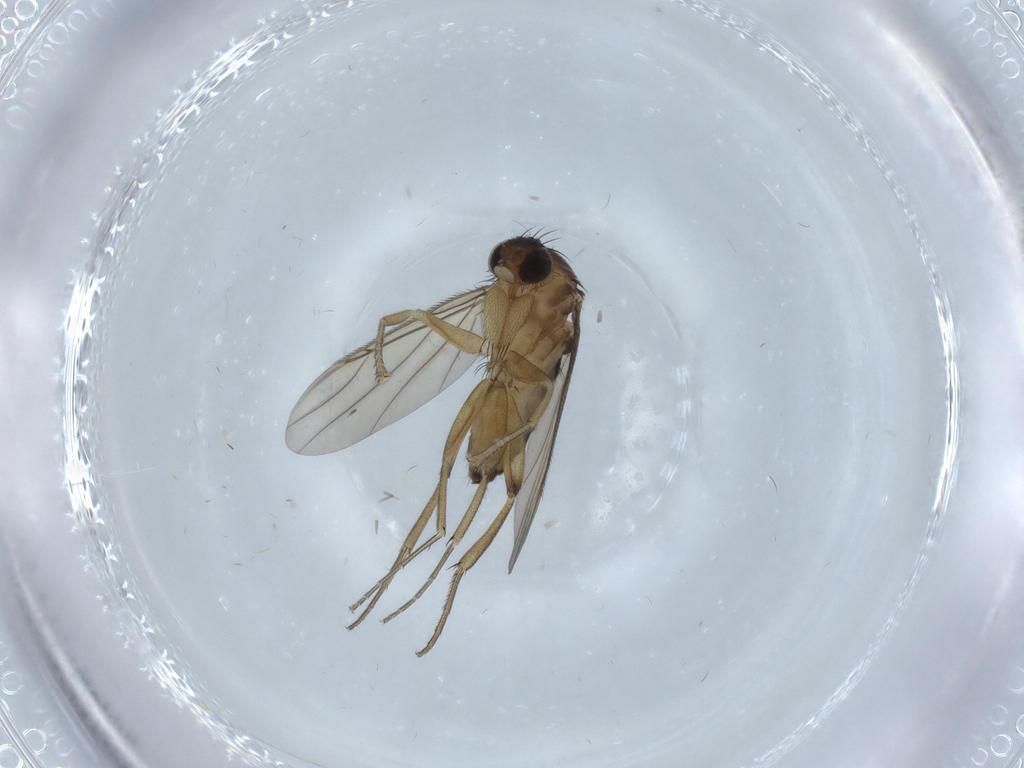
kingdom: Animalia
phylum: Arthropoda
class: Insecta
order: Diptera
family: Phoridae
